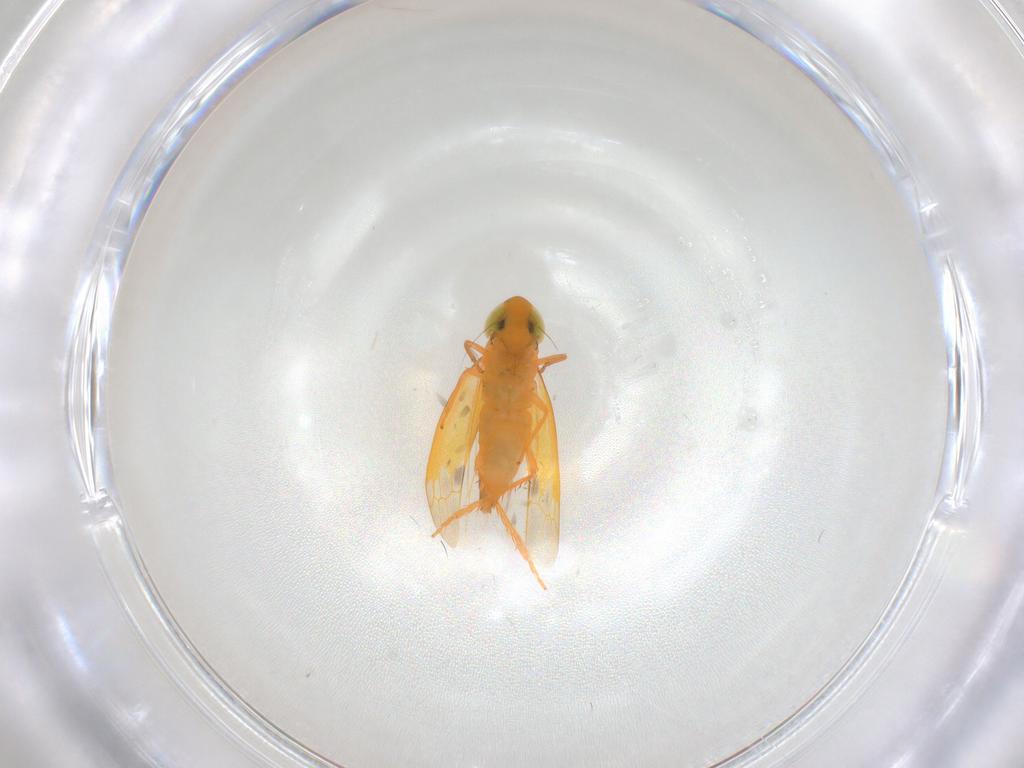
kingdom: Animalia
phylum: Arthropoda
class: Insecta
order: Hemiptera
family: Cicadellidae
